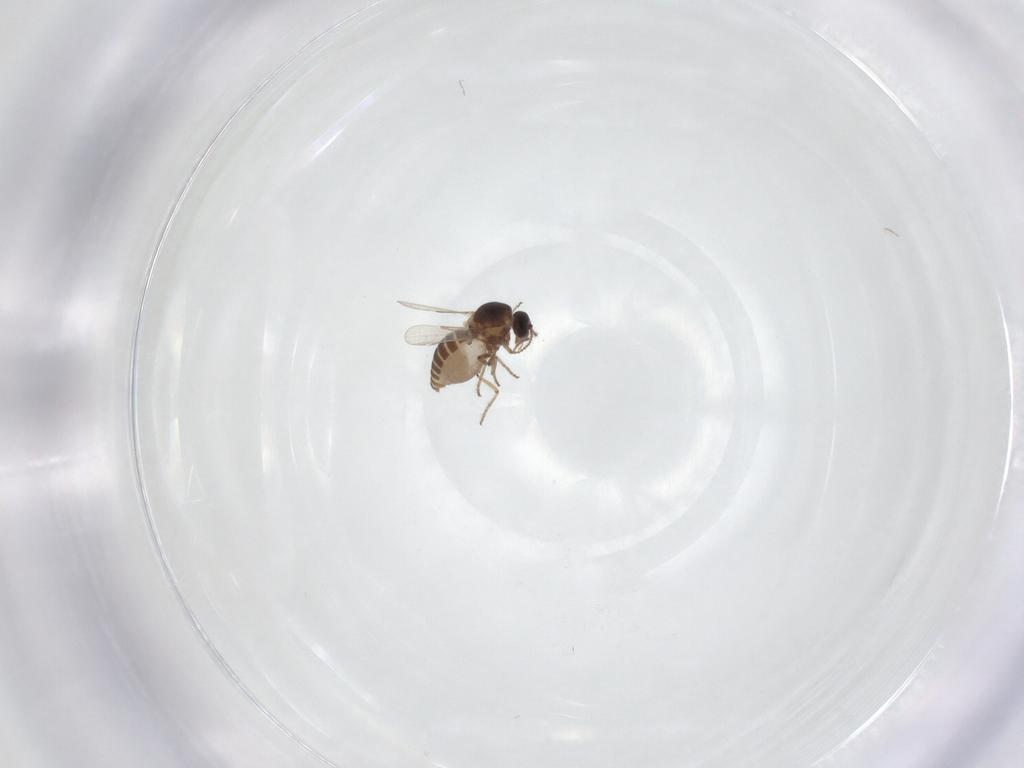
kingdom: Animalia
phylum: Arthropoda
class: Insecta
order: Diptera
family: Ceratopogonidae
